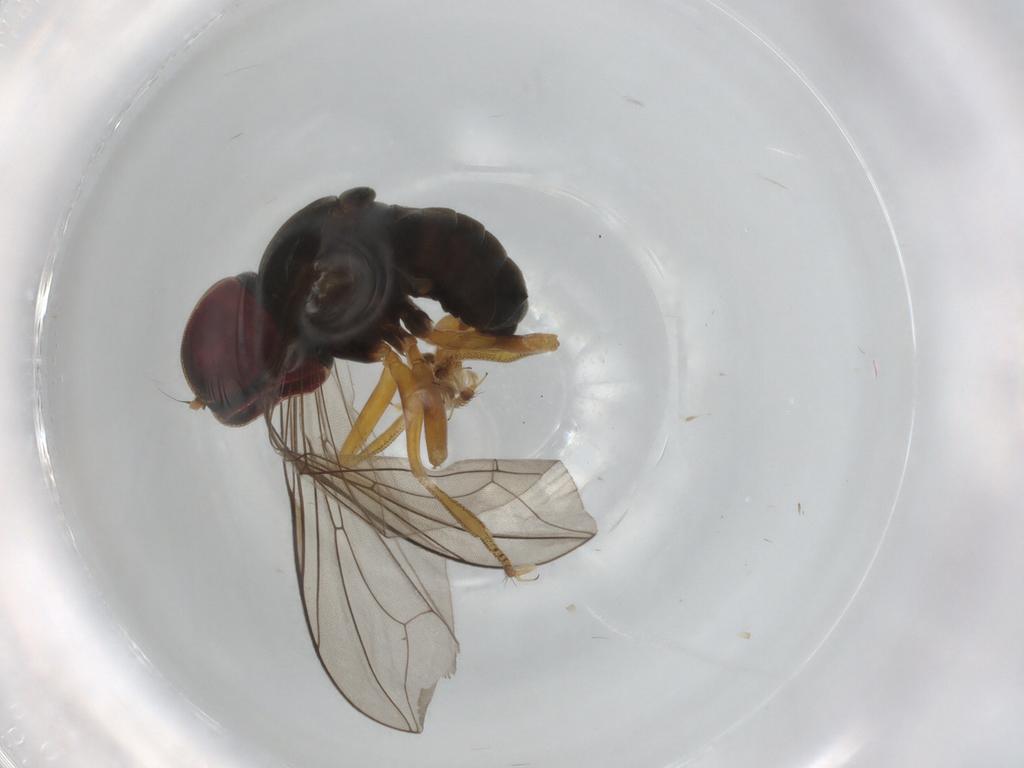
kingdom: Animalia
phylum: Arthropoda
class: Insecta
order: Diptera
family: Pipunculidae
